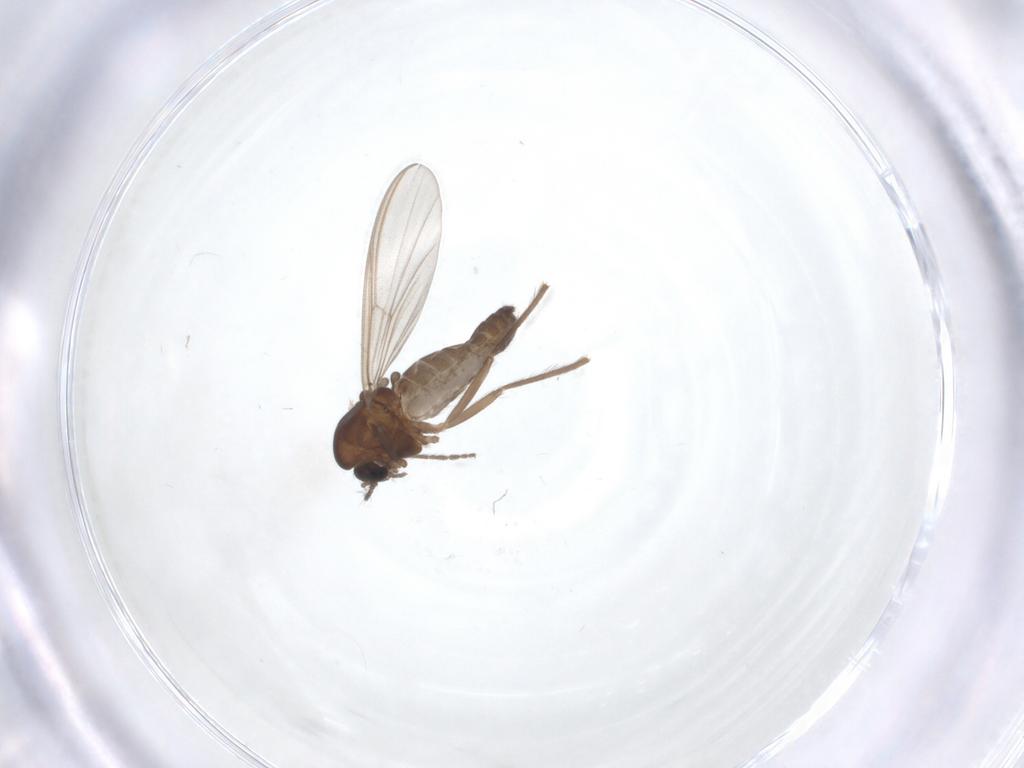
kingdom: Animalia
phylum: Arthropoda
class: Insecta
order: Diptera
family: Chironomidae
